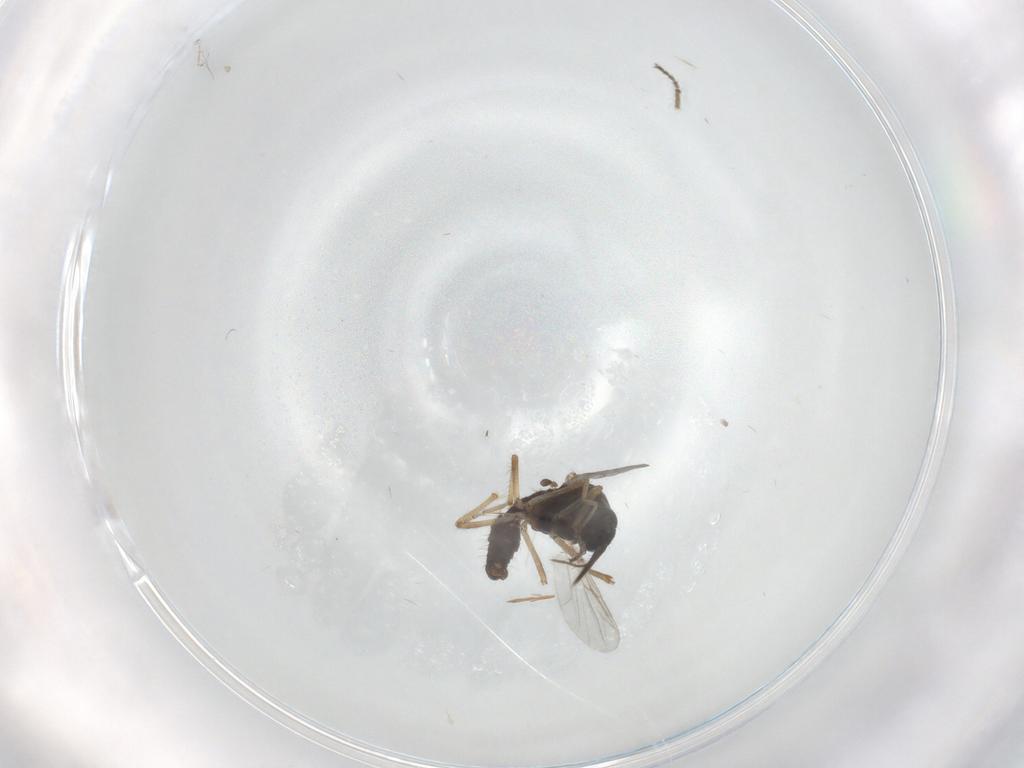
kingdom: Animalia
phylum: Arthropoda
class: Insecta
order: Diptera
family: Ceratopogonidae
